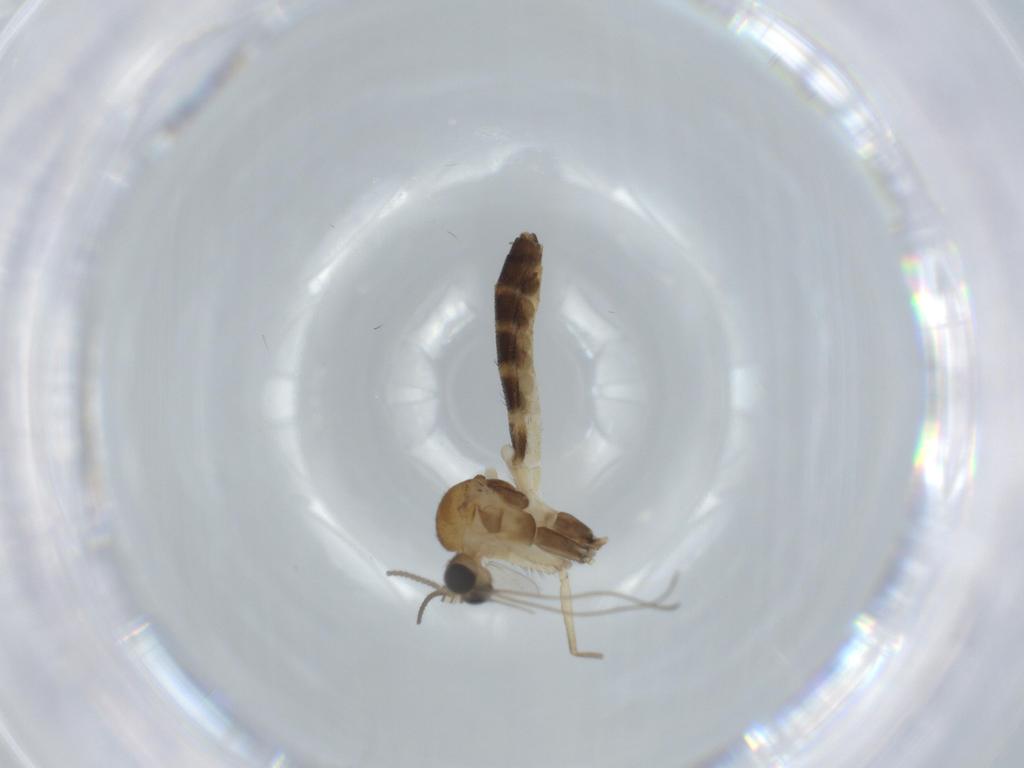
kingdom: Animalia
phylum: Arthropoda
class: Insecta
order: Diptera
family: Keroplatidae
